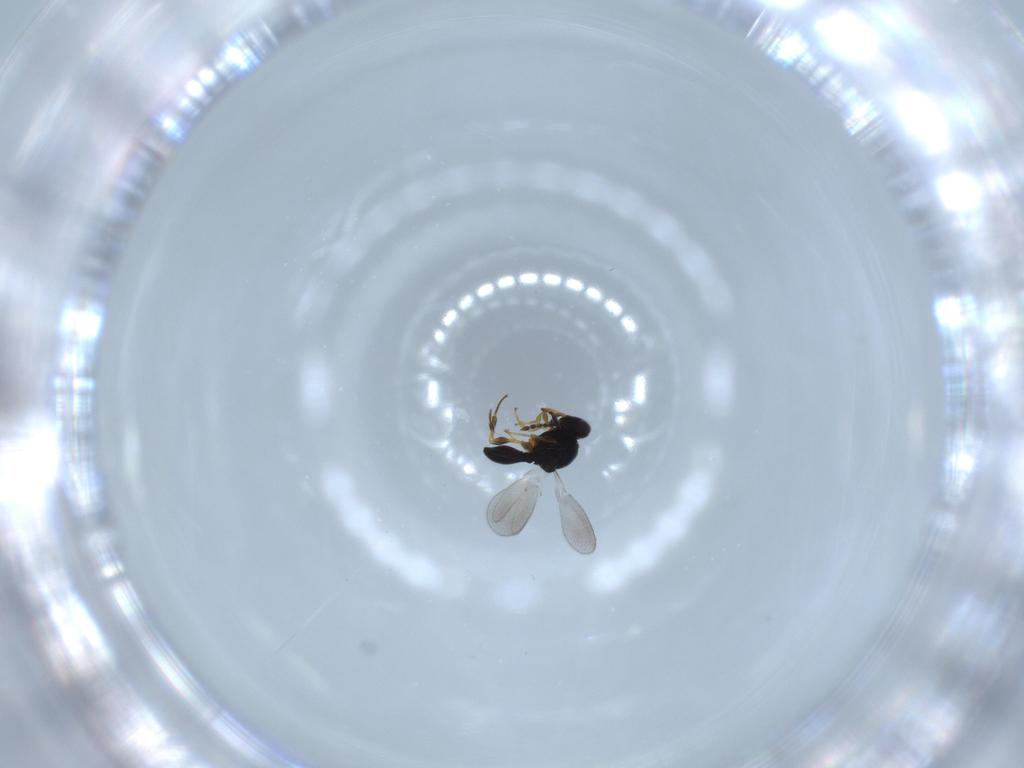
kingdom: Animalia
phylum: Arthropoda
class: Insecta
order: Hymenoptera
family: Platygastridae
